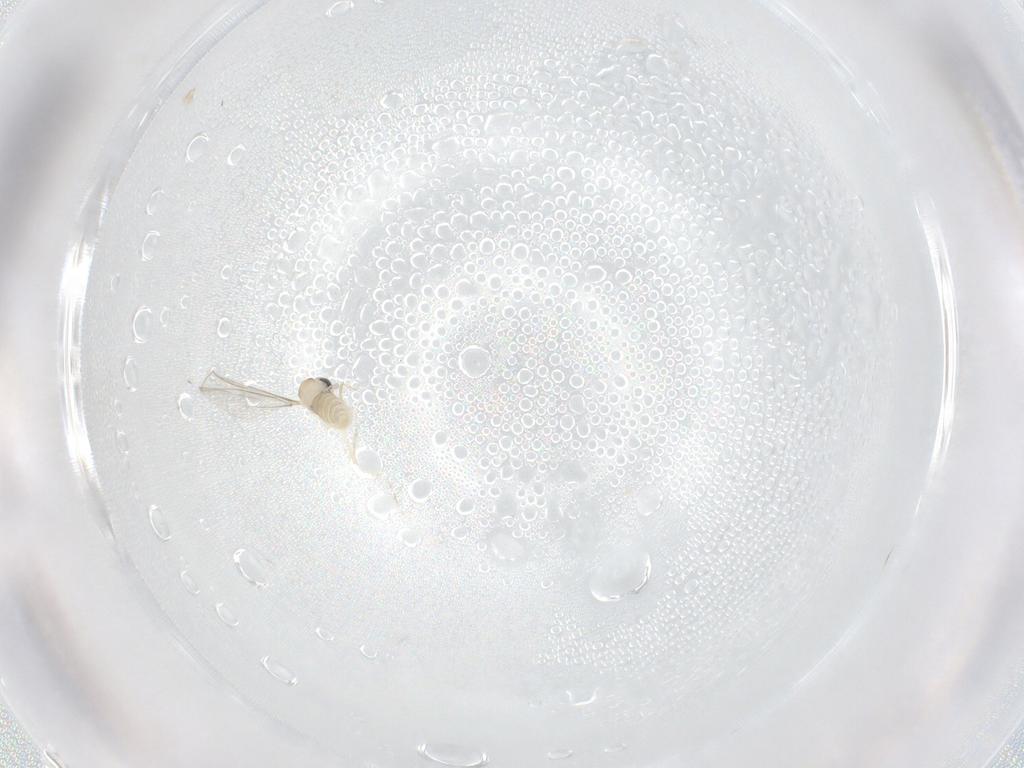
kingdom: Animalia
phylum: Arthropoda
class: Insecta
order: Diptera
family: Cecidomyiidae
